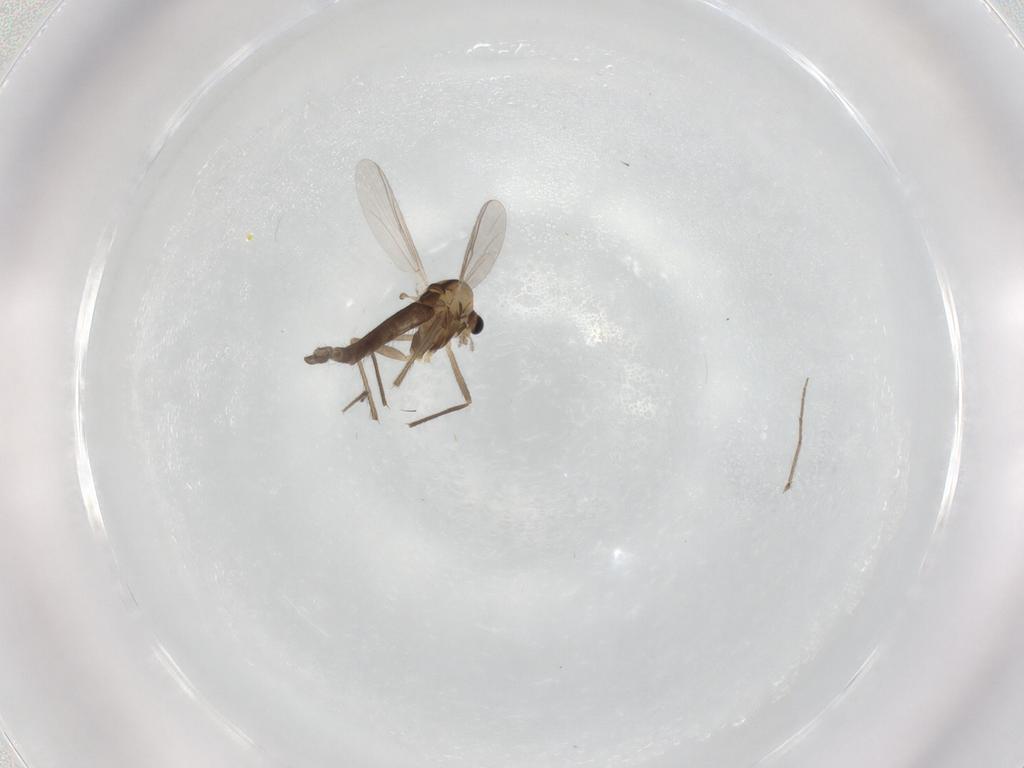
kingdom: Animalia
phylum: Arthropoda
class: Insecta
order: Diptera
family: Chironomidae
